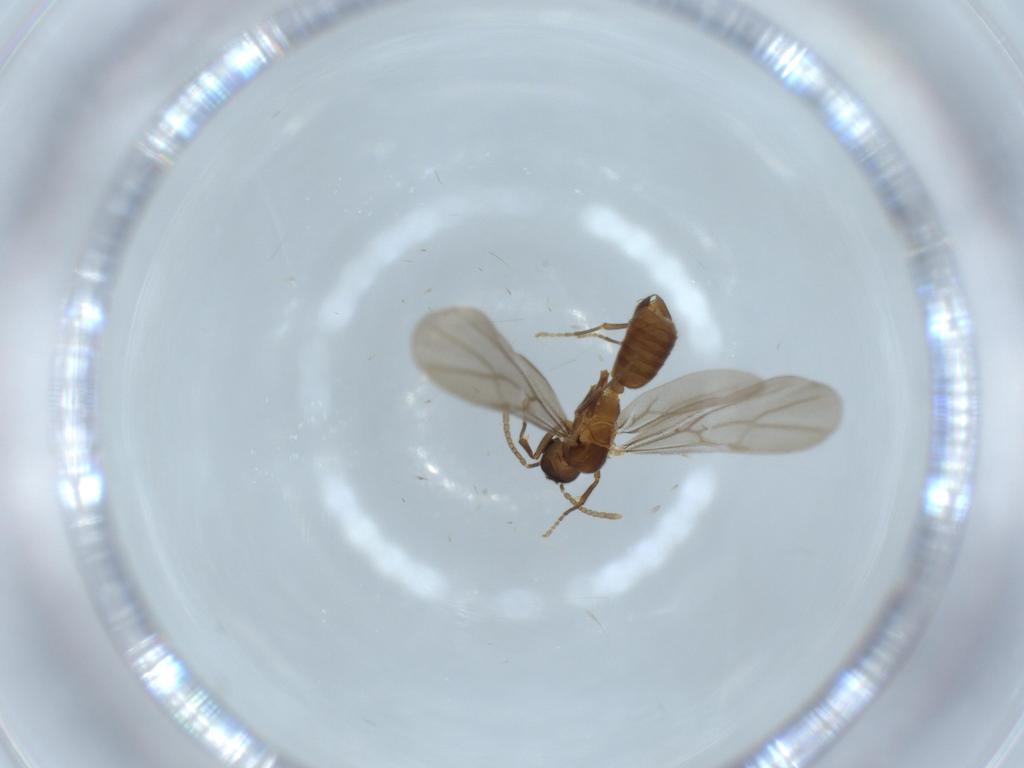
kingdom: Animalia
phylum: Arthropoda
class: Insecta
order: Hymenoptera
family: Formicidae
